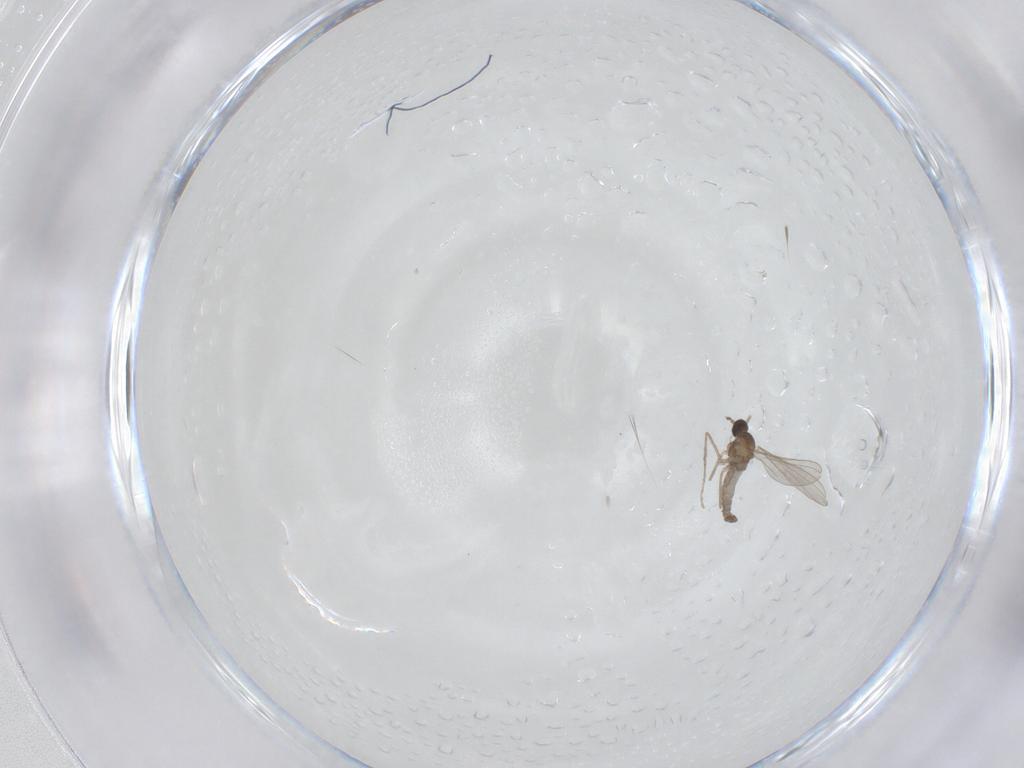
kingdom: Animalia
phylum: Arthropoda
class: Insecta
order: Diptera
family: Cecidomyiidae
